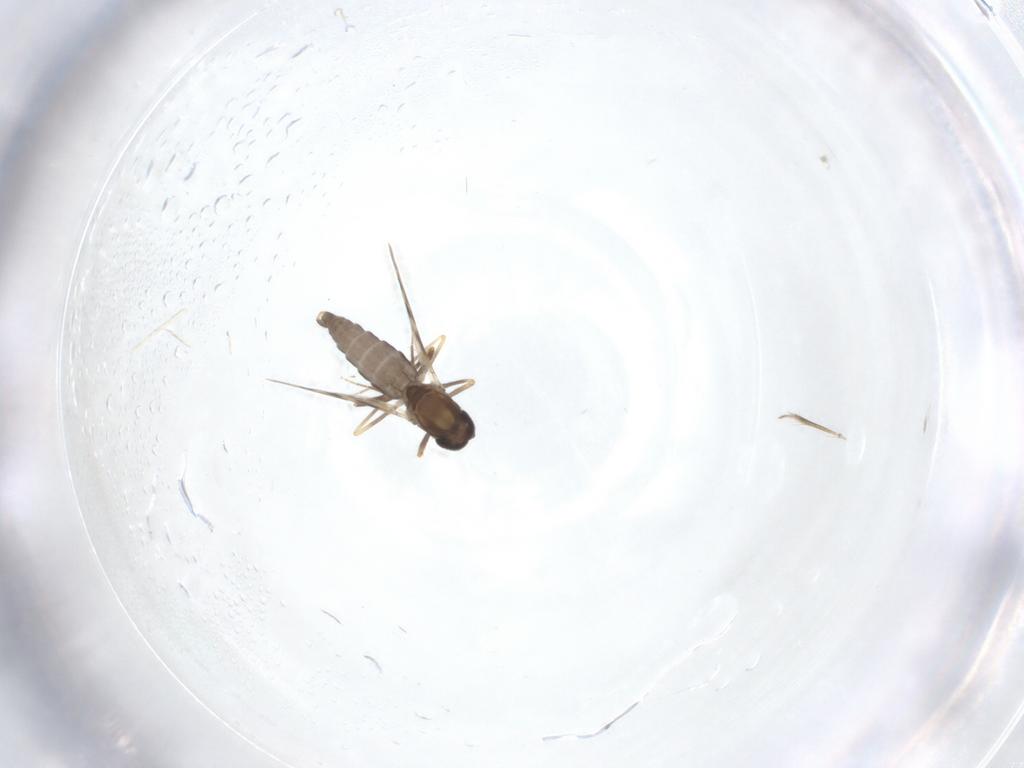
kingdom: Animalia
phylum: Arthropoda
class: Insecta
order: Diptera
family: Ceratopogonidae
